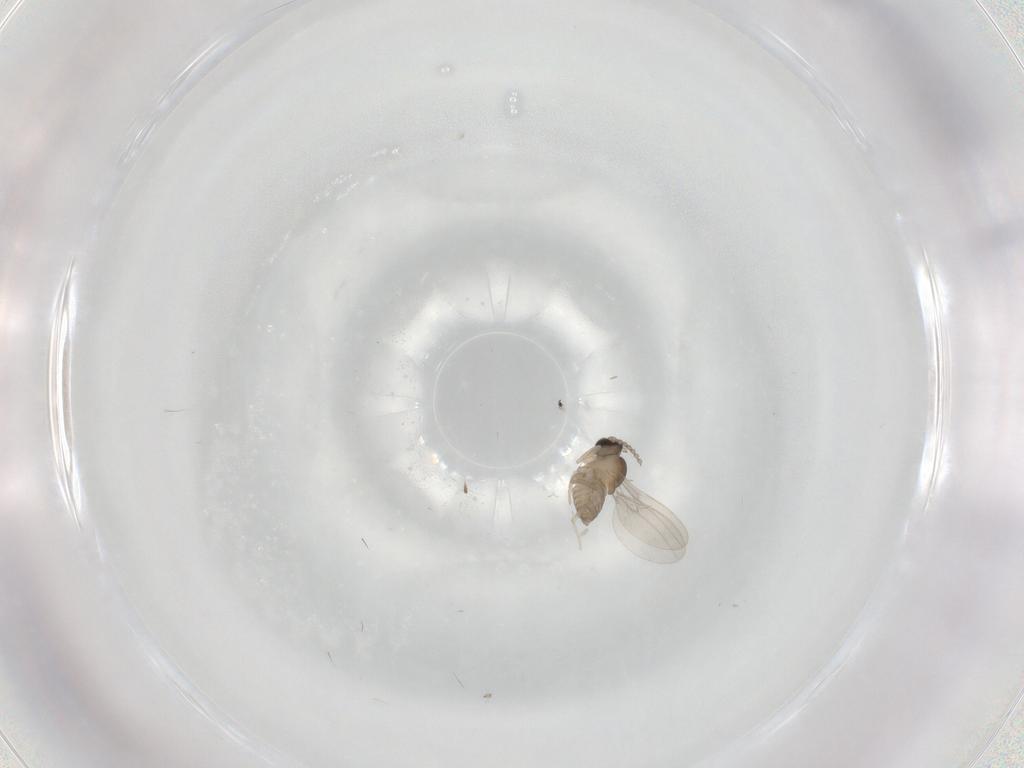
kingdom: Animalia
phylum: Arthropoda
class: Insecta
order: Diptera
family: Cecidomyiidae
